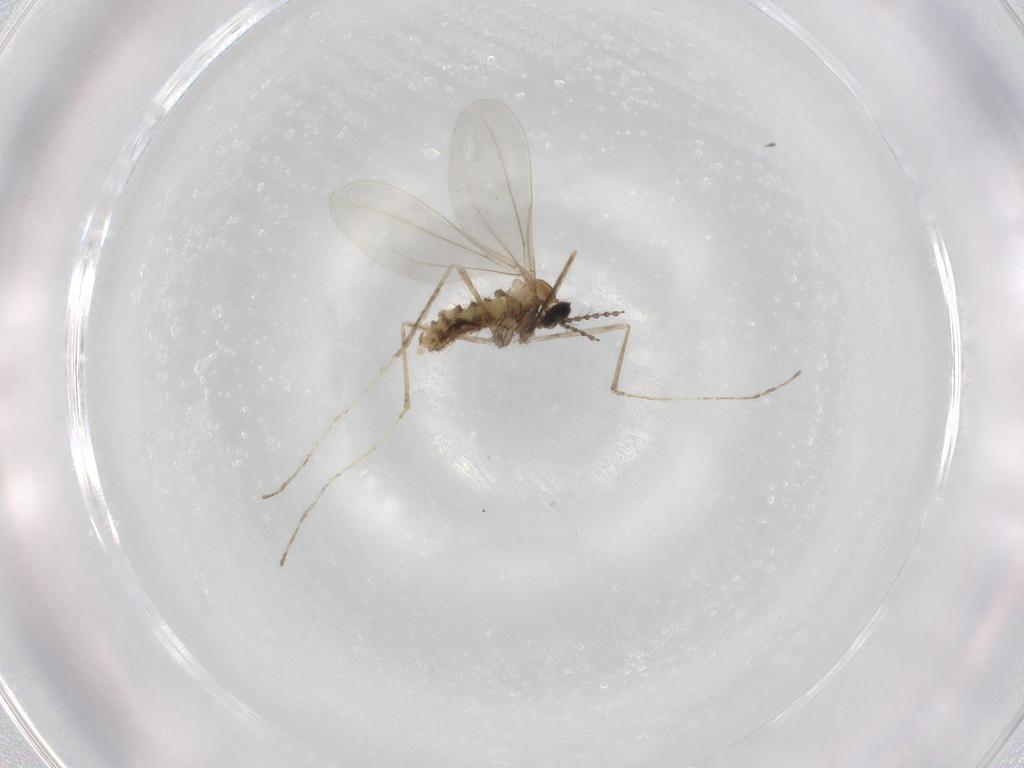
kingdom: Animalia
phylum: Arthropoda
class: Insecta
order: Diptera
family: Cecidomyiidae
